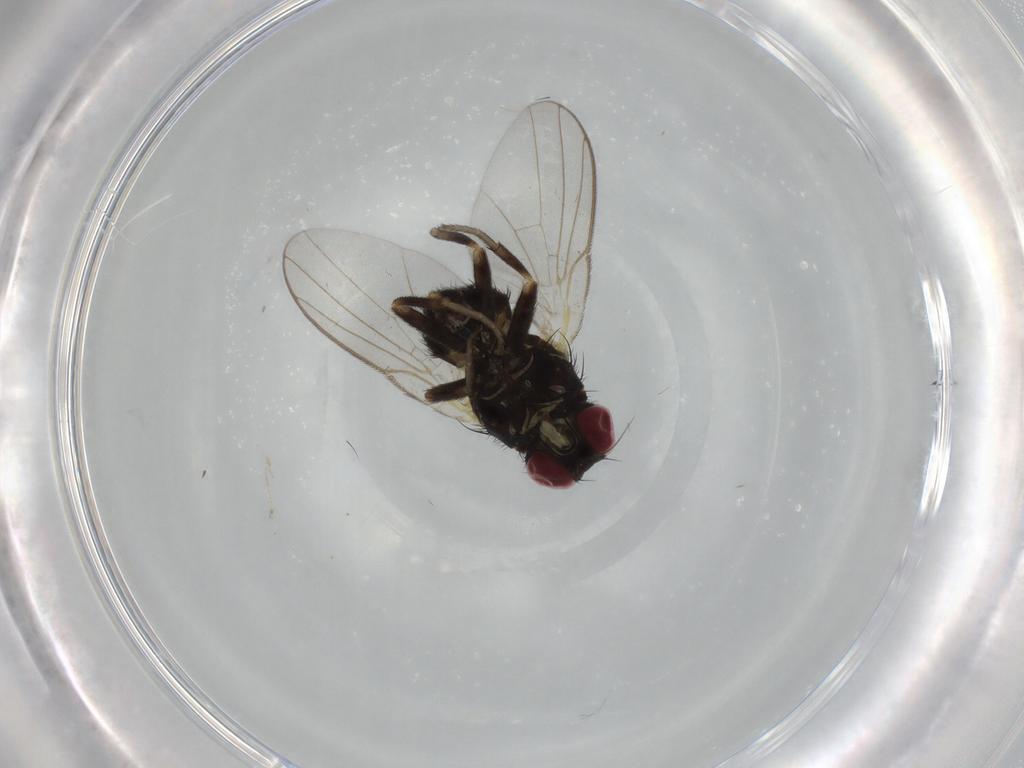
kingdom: Animalia
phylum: Arthropoda
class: Insecta
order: Diptera
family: Agromyzidae
